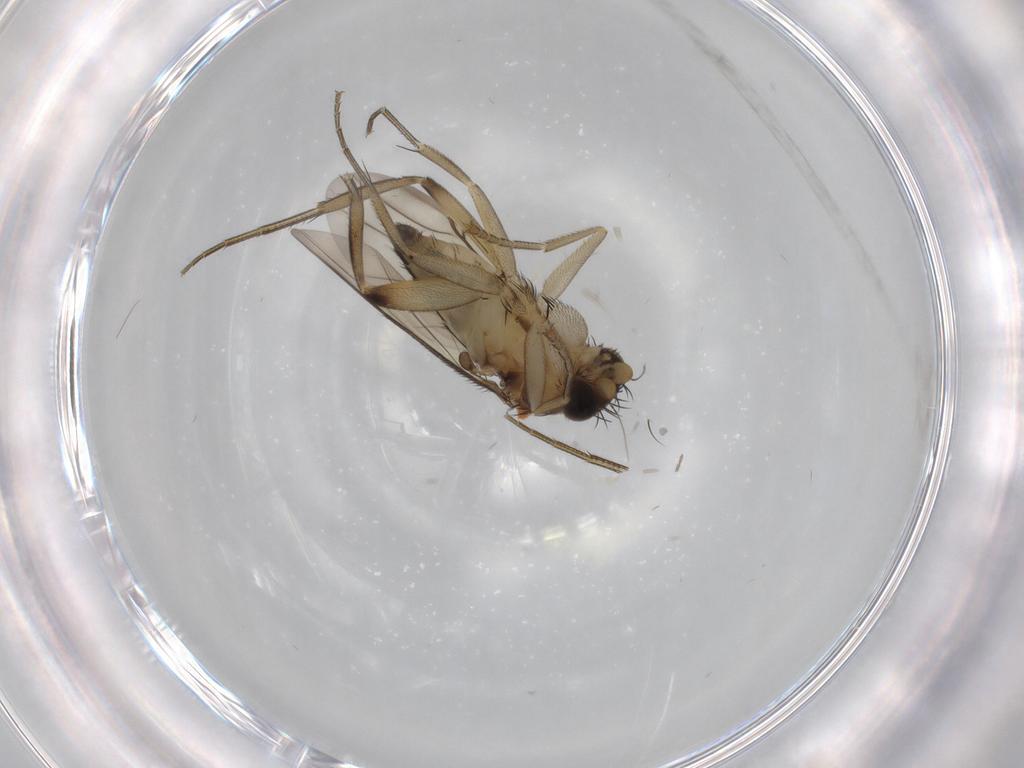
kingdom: Animalia
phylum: Arthropoda
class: Insecta
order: Diptera
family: Phoridae
